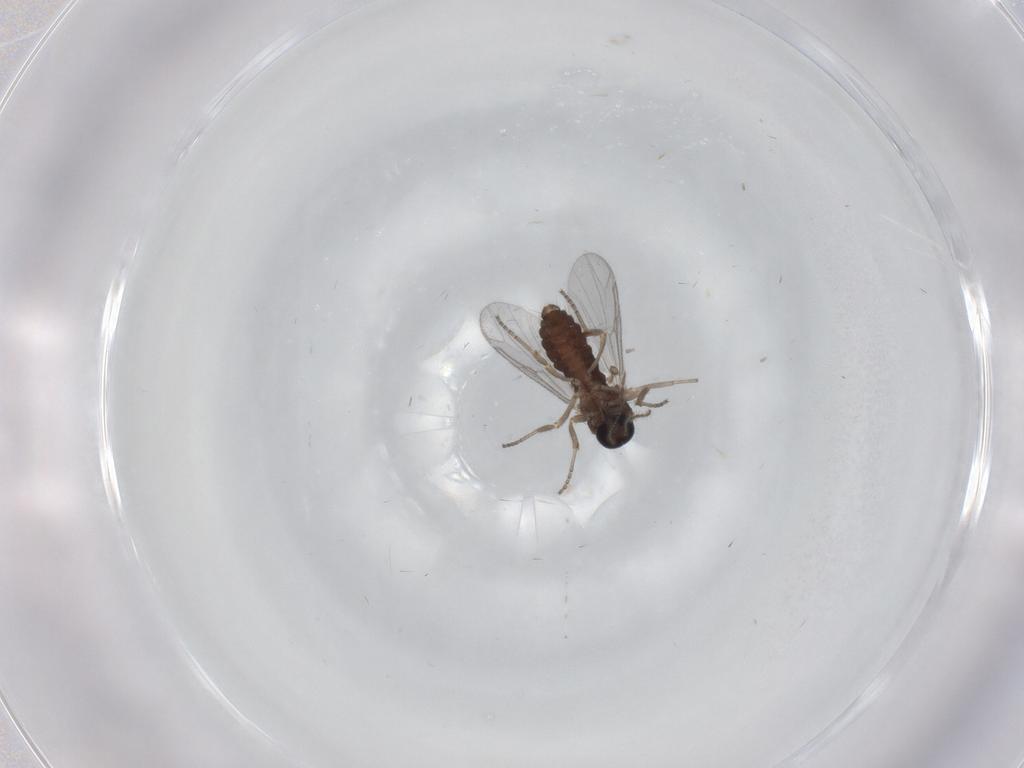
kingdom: Animalia
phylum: Arthropoda
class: Insecta
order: Diptera
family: Ceratopogonidae
